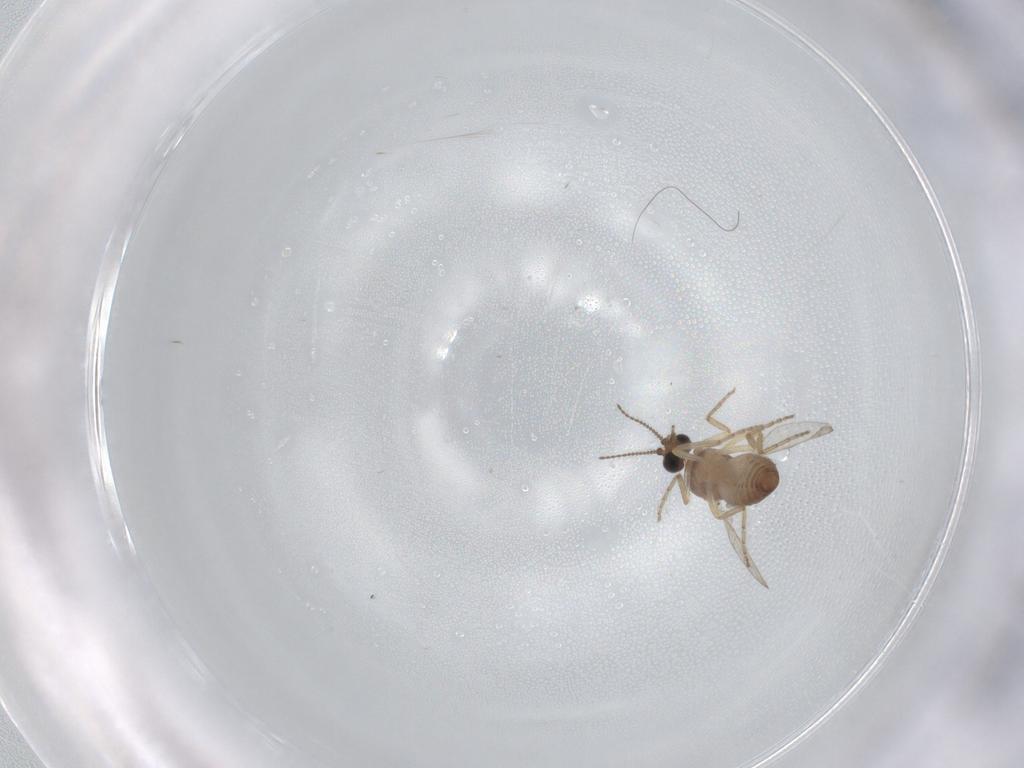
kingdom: Animalia
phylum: Arthropoda
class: Insecta
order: Diptera
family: Ceratopogonidae
